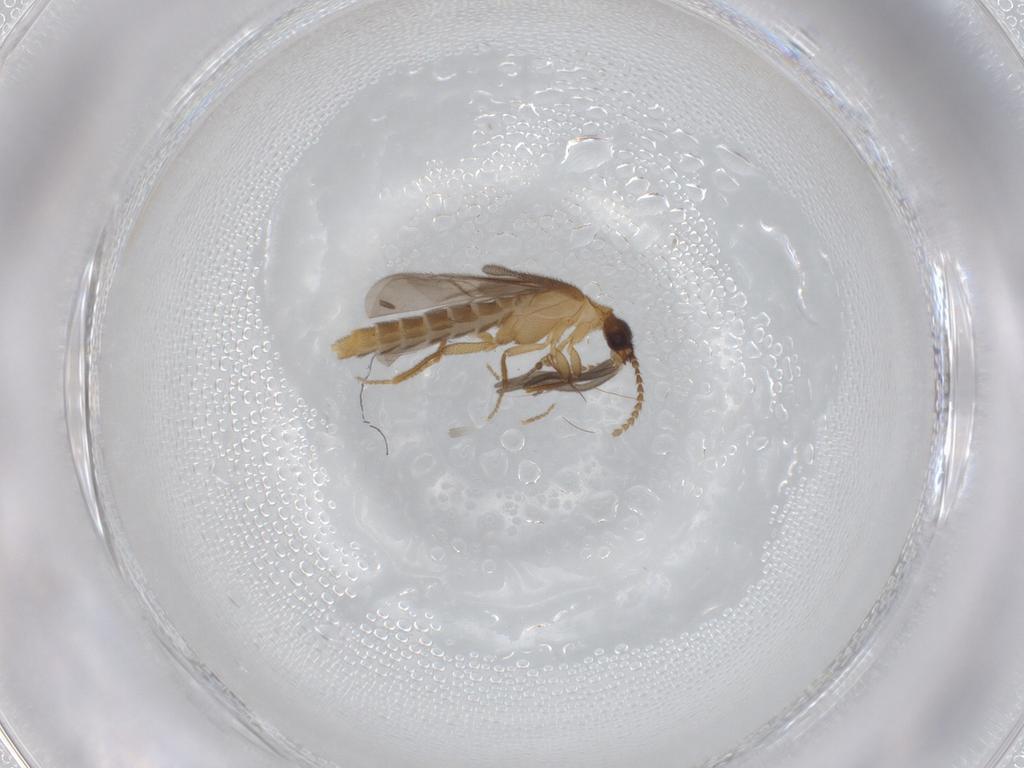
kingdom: Animalia
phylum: Arthropoda
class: Insecta
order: Coleoptera
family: Omethidae
